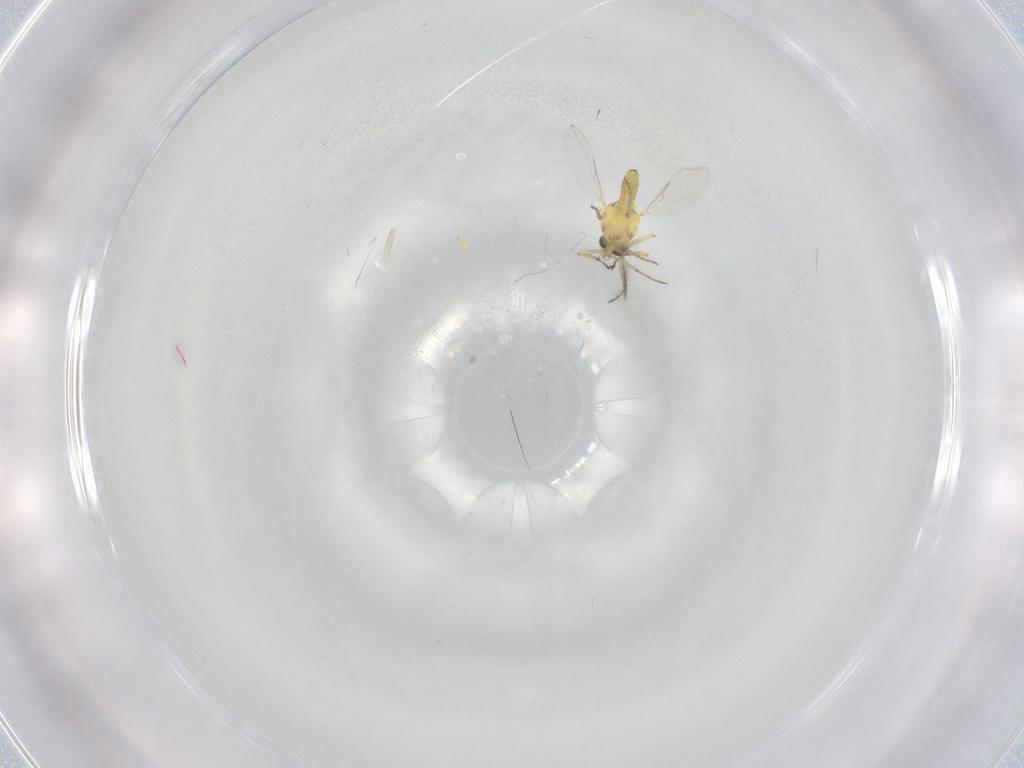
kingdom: Animalia
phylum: Arthropoda
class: Insecta
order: Diptera
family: Ceratopogonidae
